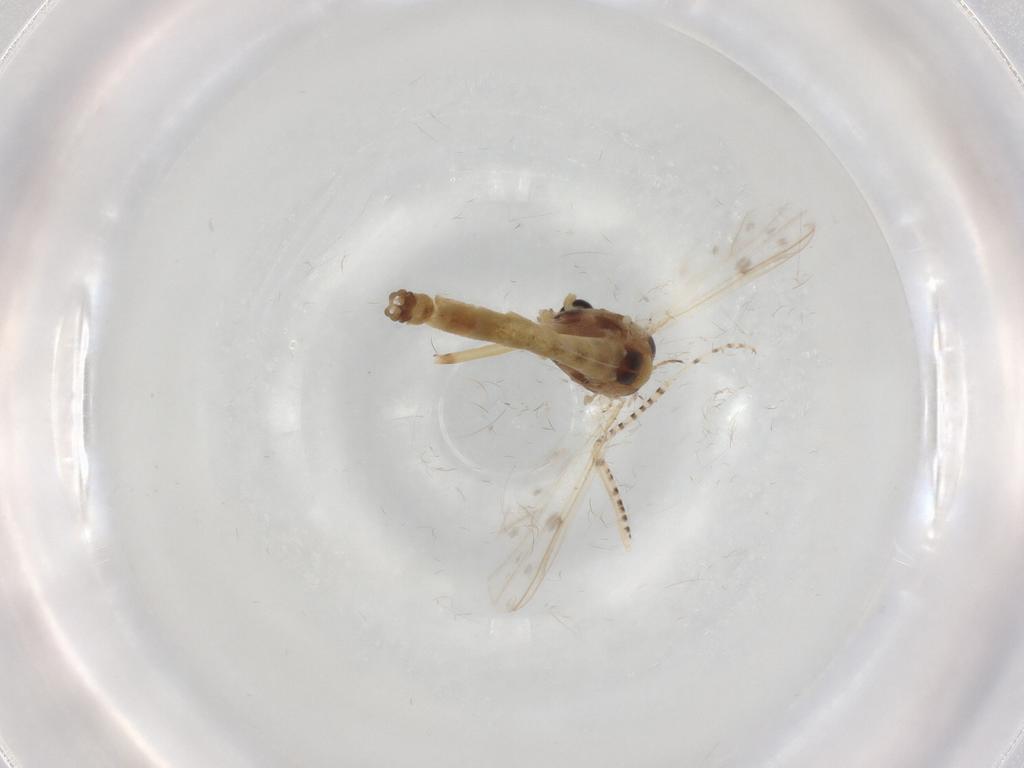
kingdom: Animalia
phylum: Arthropoda
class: Insecta
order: Diptera
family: Chironomidae
